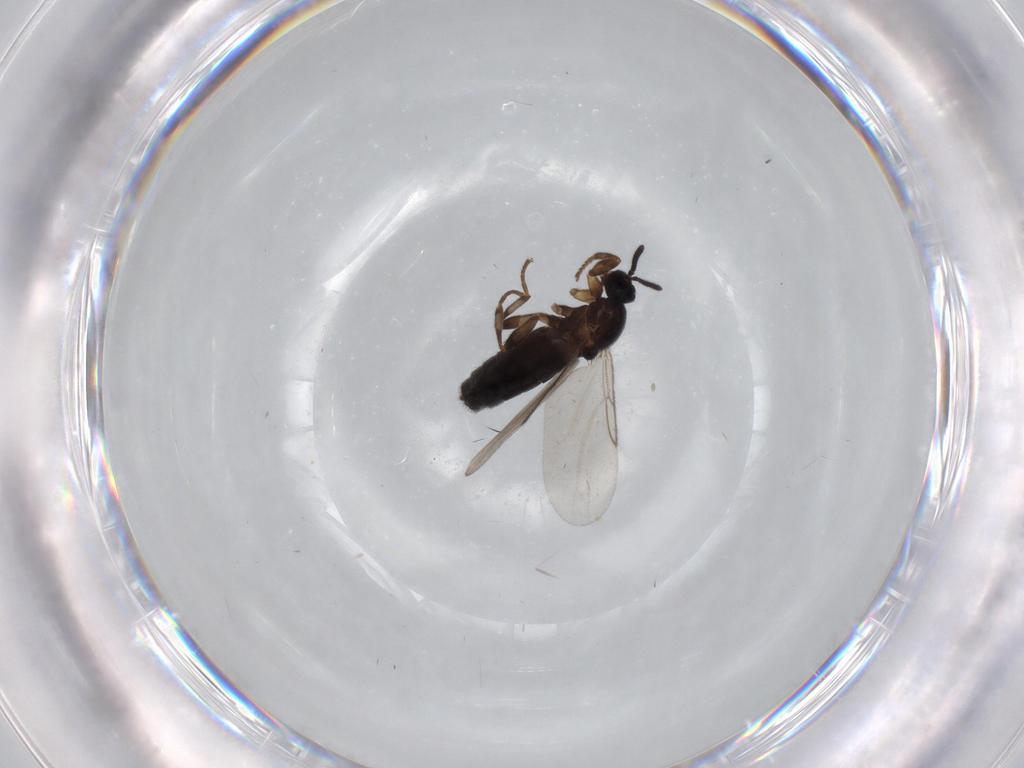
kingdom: Animalia
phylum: Arthropoda
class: Insecta
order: Diptera
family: Scatopsidae
